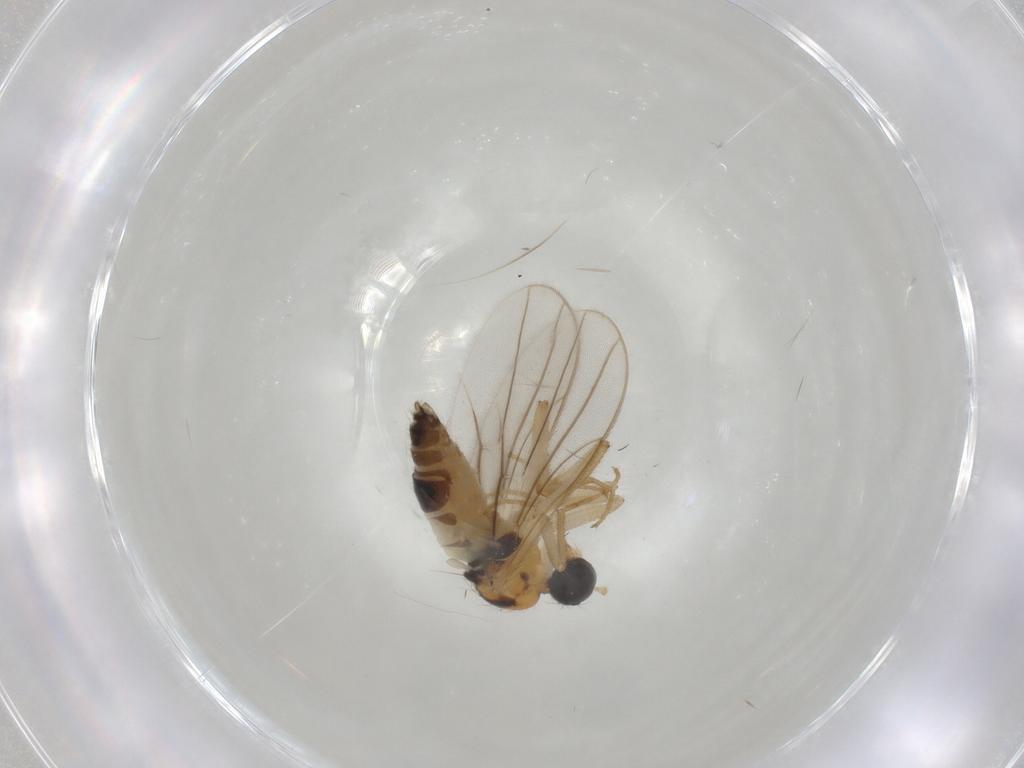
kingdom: Animalia
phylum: Arthropoda
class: Insecta
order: Diptera
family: Hybotidae
